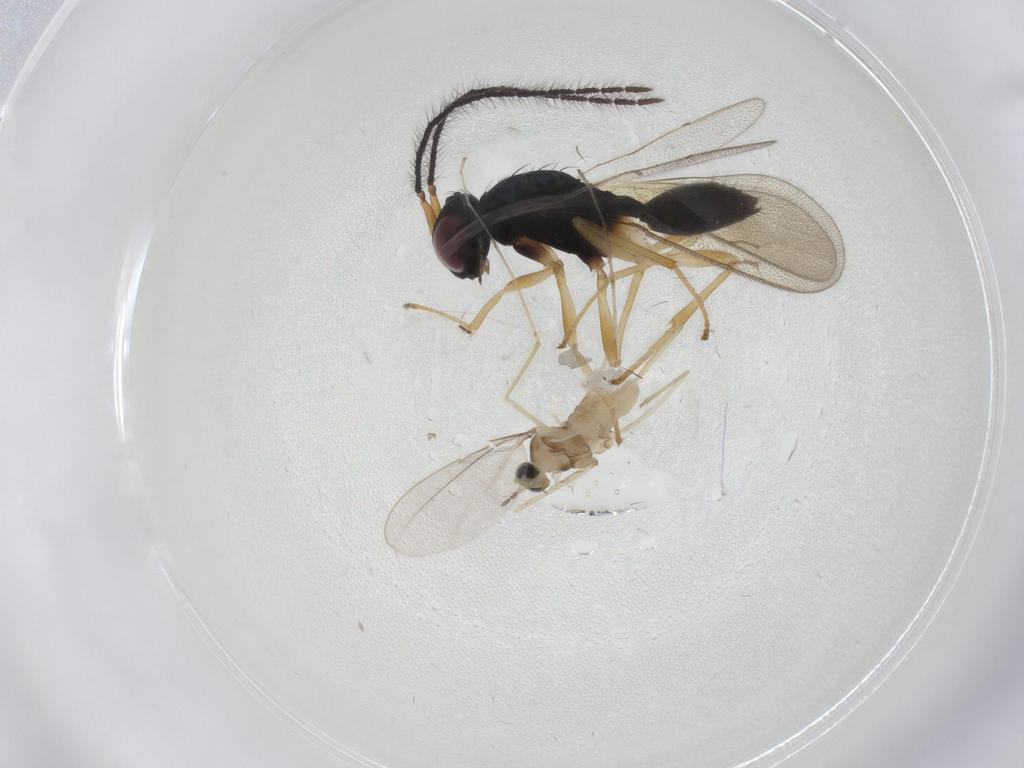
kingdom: Animalia
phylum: Arthropoda
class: Insecta
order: Diptera
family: Cecidomyiidae
